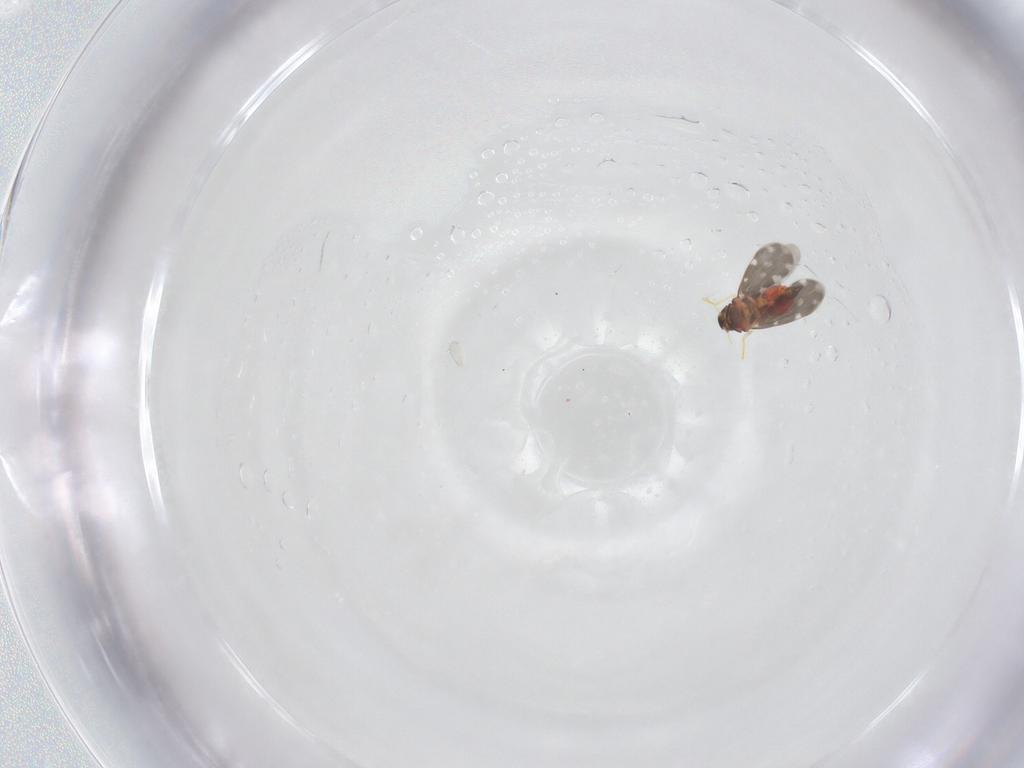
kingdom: Animalia
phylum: Arthropoda
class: Insecta
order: Hemiptera
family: Aleyrodidae
